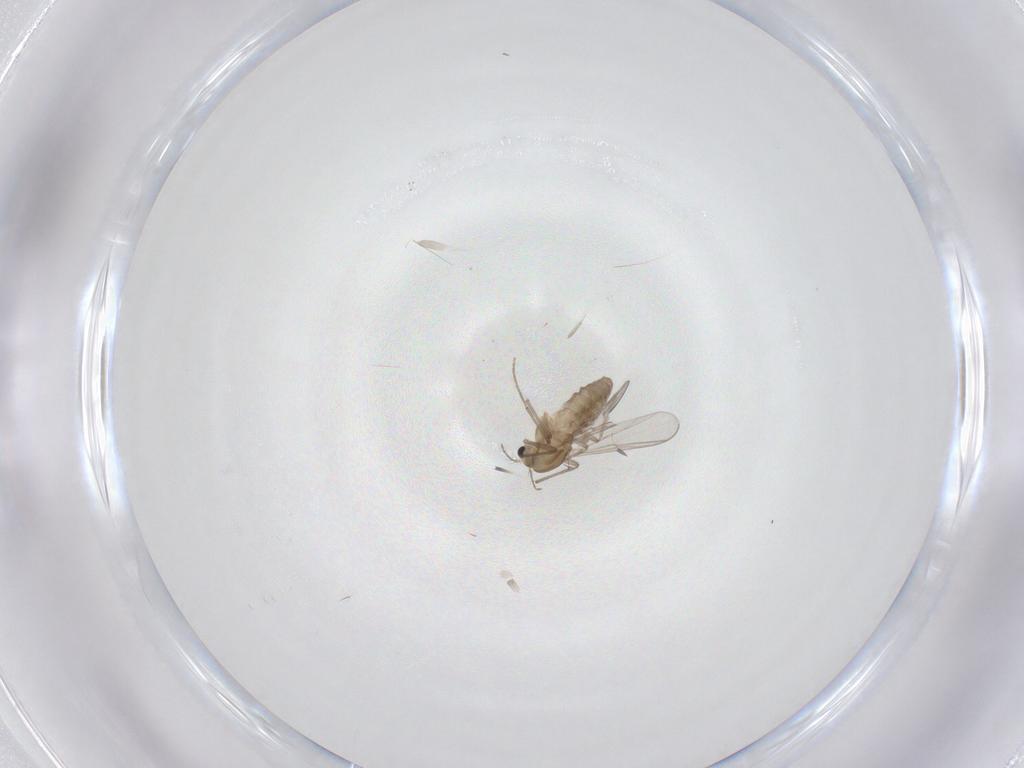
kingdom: Animalia
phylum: Arthropoda
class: Insecta
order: Diptera
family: Chironomidae
